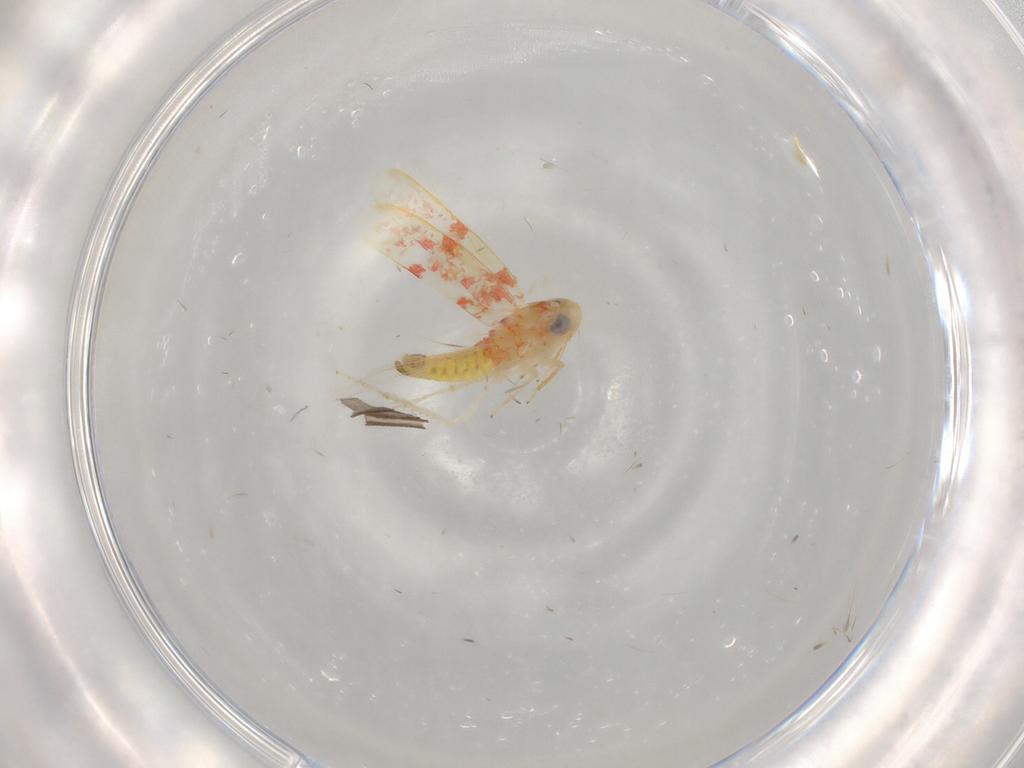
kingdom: Animalia
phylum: Arthropoda
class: Insecta
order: Hemiptera
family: Cicadellidae
